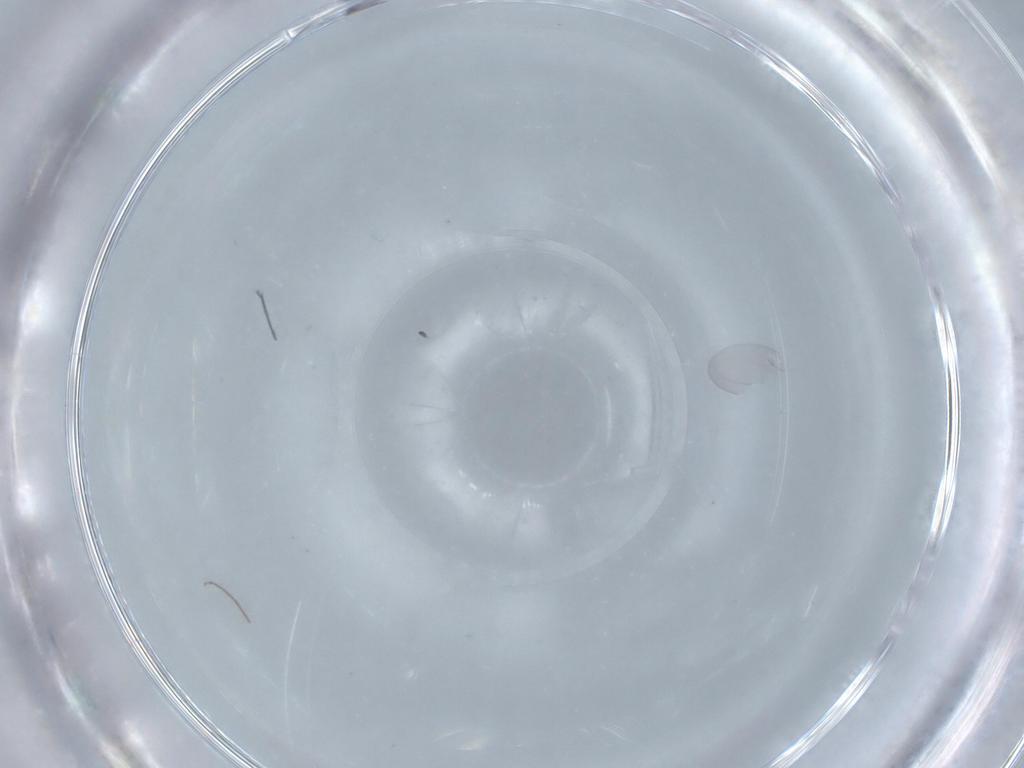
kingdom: Animalia
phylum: Arthropoda
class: Insecta
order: Diptera
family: Chironomidae
